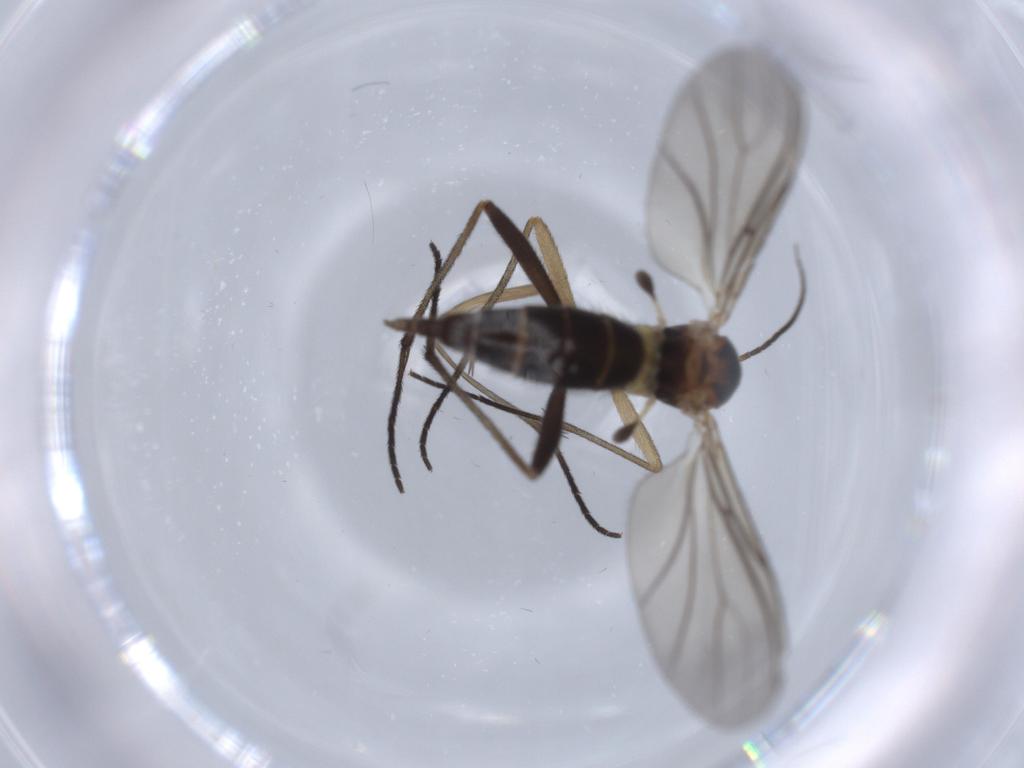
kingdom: Animalia
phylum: Arthropoda
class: Insecta
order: Diptera
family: Sciaridae
